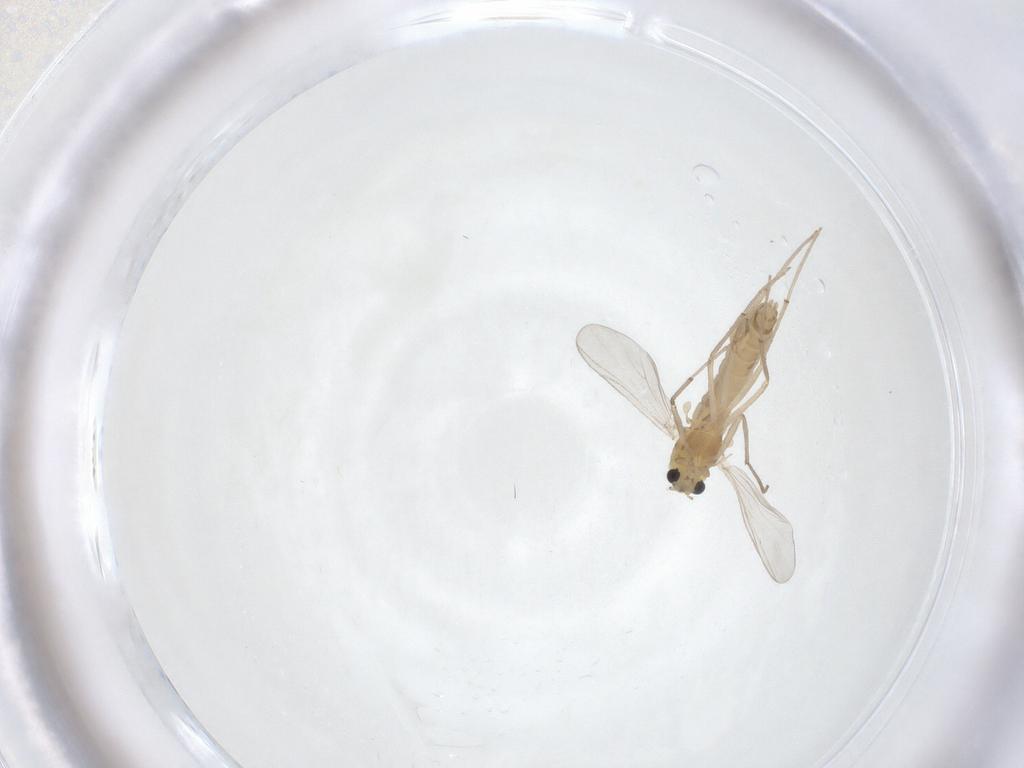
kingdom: Animalia
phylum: Arthropoda
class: Insecta
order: Diptera
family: Chironomidae
